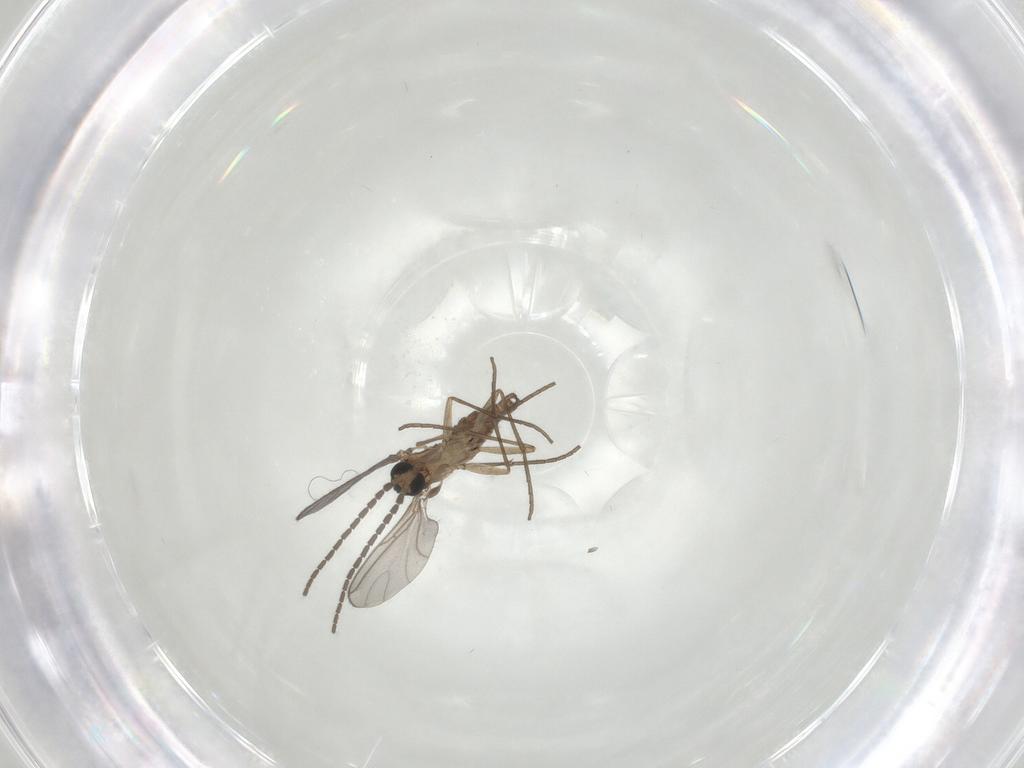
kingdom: Animalia
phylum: Arthropoda
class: Insecta
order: Diptera
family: Sciaridae
